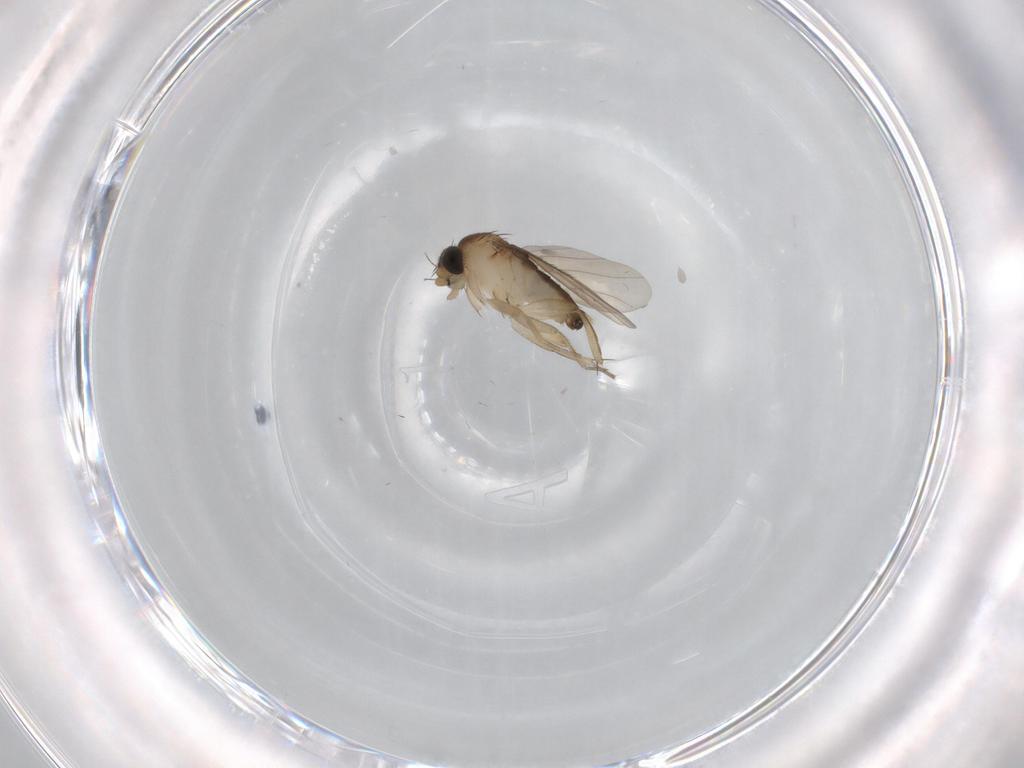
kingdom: Animalia
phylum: Arthropoda
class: Insecta
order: Diptera
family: Phoridae
